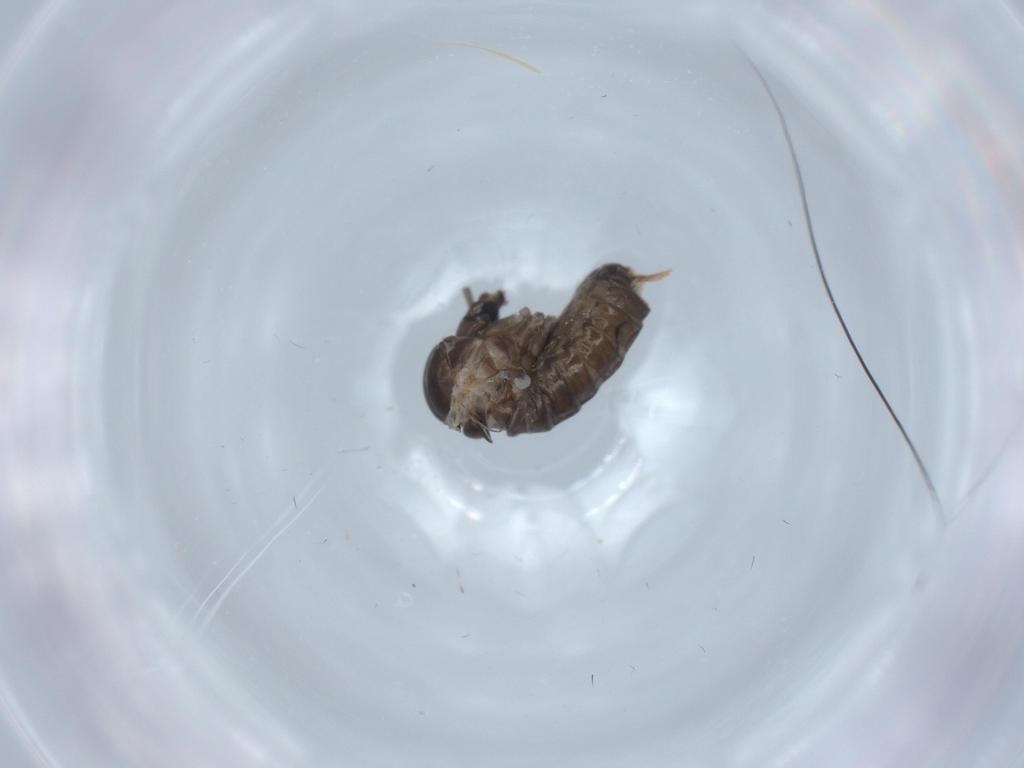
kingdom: Animalia
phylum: Arthropoda
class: Insecta
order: Diptera
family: Psychodidae
